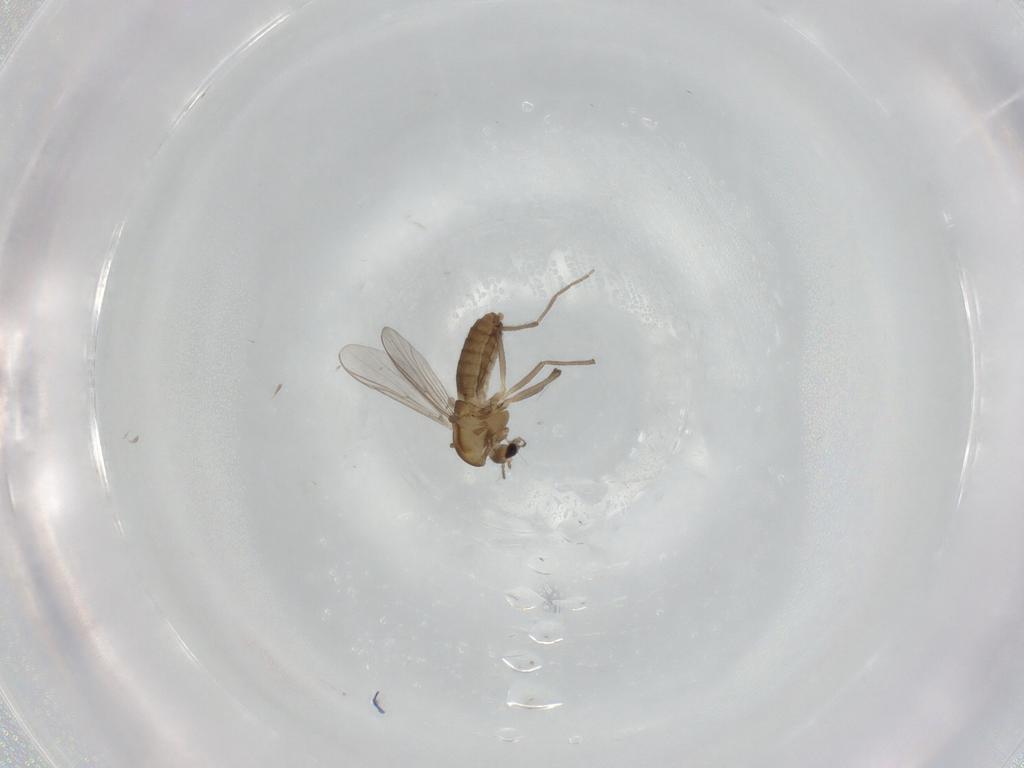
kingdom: Animalia
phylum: Arthropoda
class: Insecta
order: Diptera
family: Chironomidae
